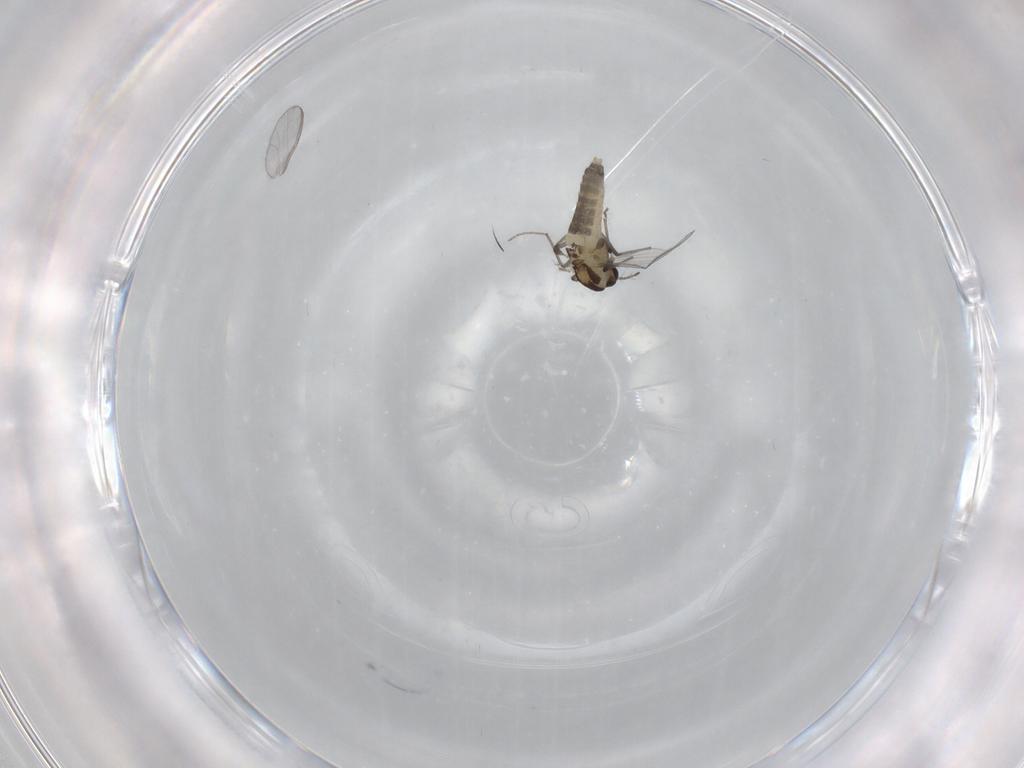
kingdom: Animalia
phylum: Arthropoda
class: Insecta
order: Diptera
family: Chironomidae
